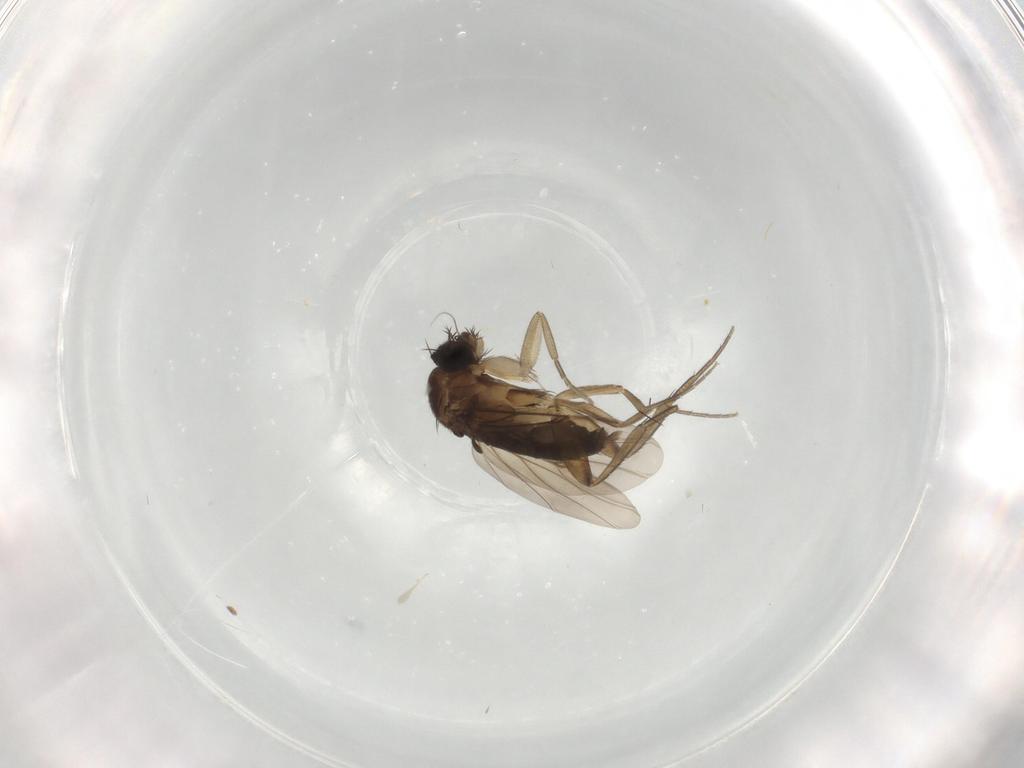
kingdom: Animalia
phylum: Arthropoda
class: Insecta
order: Diptera
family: Phoridae
